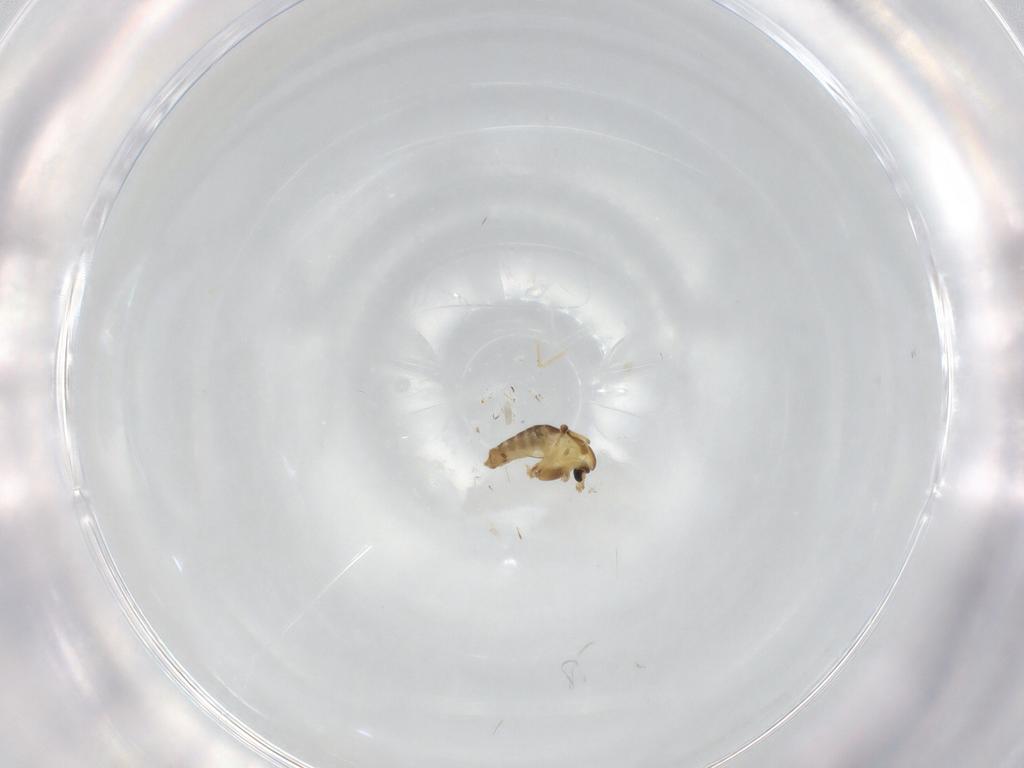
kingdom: Animalia
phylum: Arthropoda
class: Insecta
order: Diptera
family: Chironomidae
